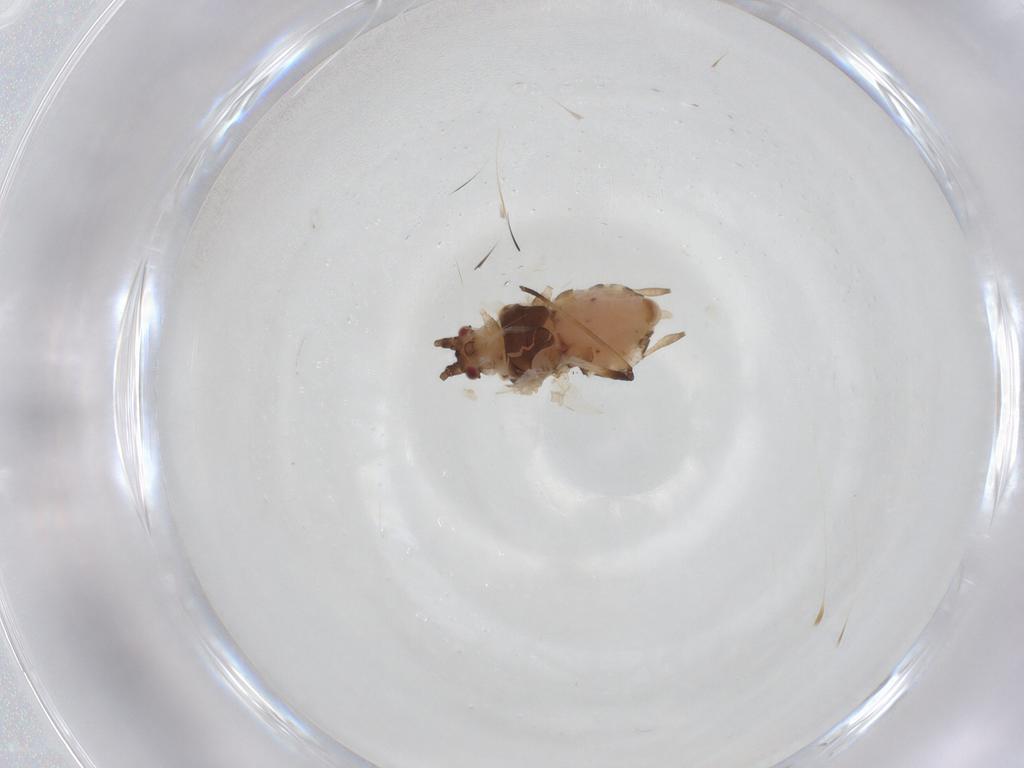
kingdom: Animalia
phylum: Arthropoda
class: Insecta
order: Hemiptera
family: Aphididae
